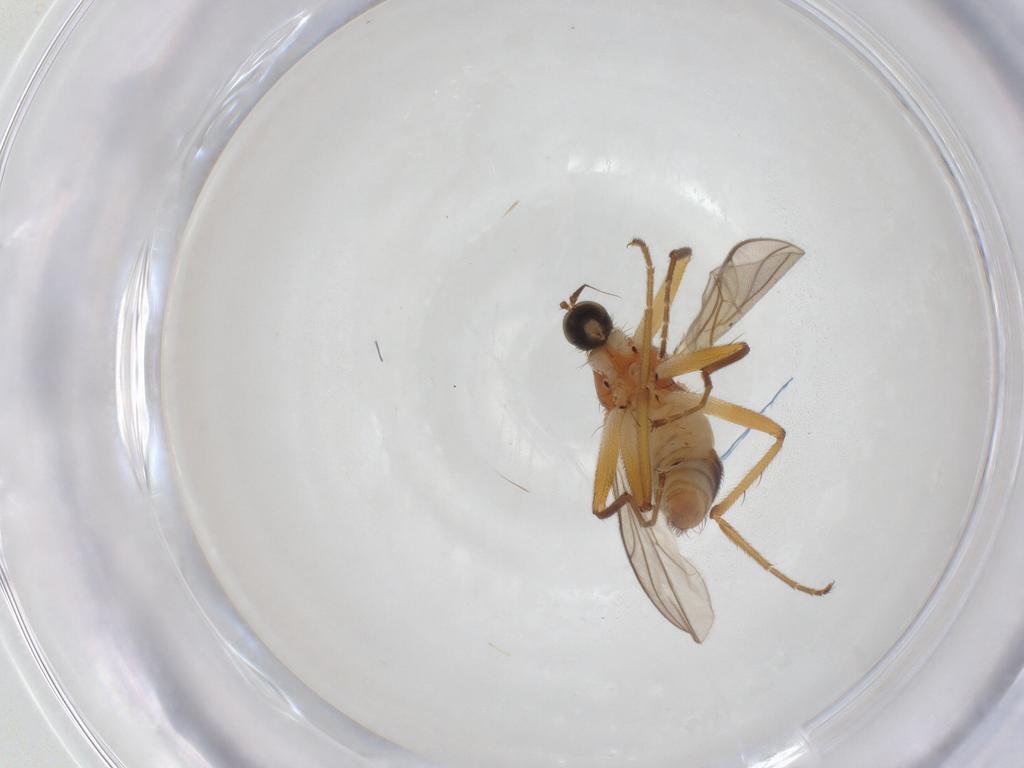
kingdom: Animalia
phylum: Arthropoda
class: Insecta
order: Diptera
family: Hybotidae
